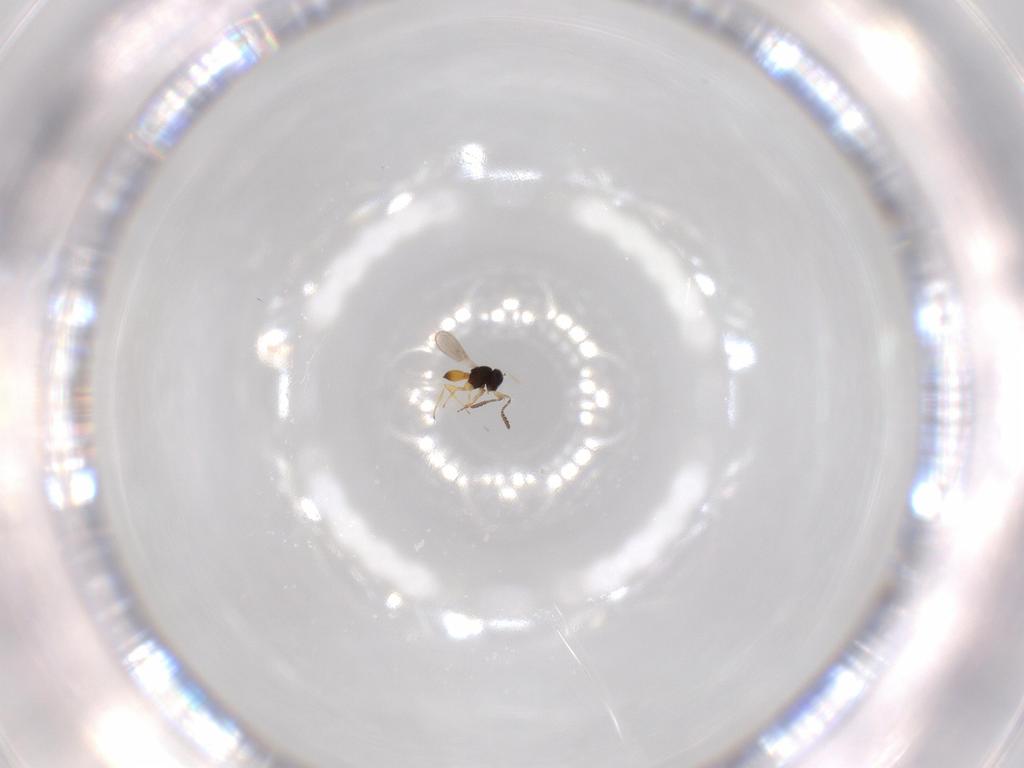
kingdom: Animalia
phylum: Arthropoda
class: Insecta
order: Hymenoptera
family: Scelionidae
